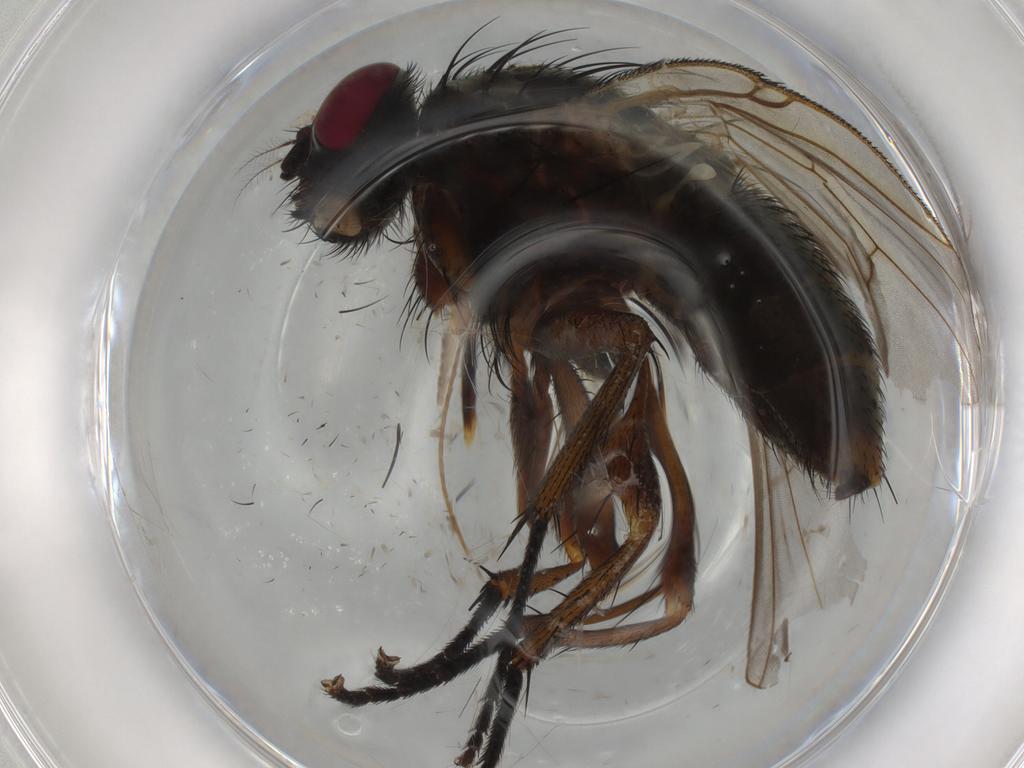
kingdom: Animalia
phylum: Arthropoda
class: Insecta
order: Diptera
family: Muscidae
